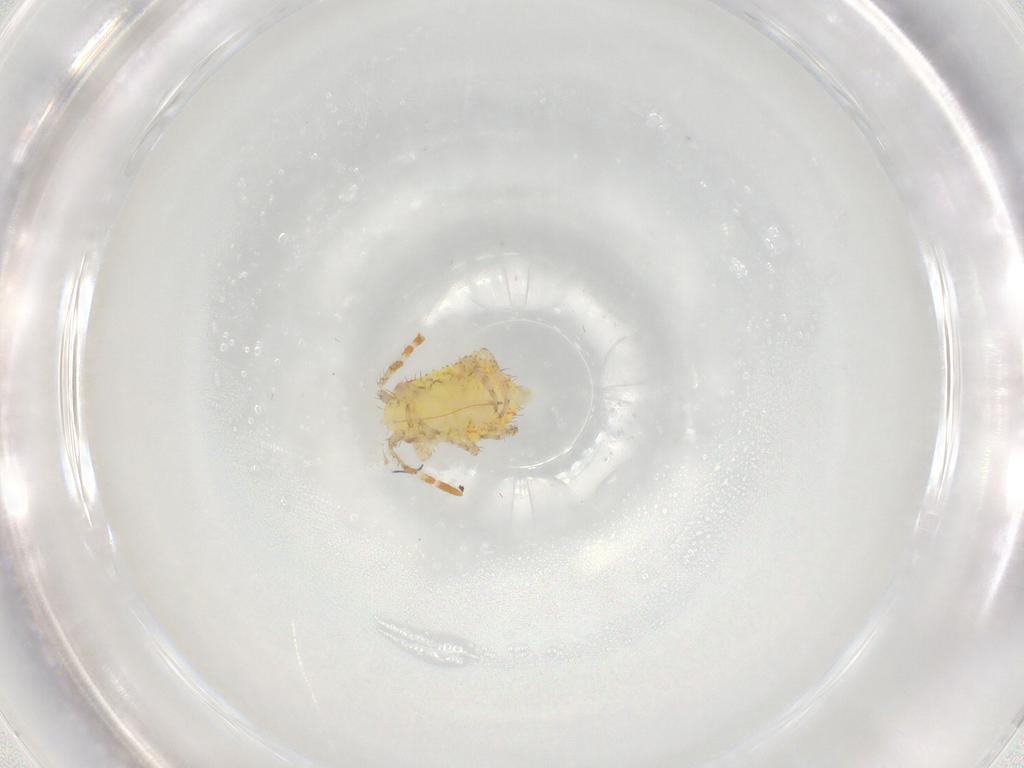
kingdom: Animalia
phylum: Arthropoda
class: Insecta
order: Hemiptera
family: Miridae
